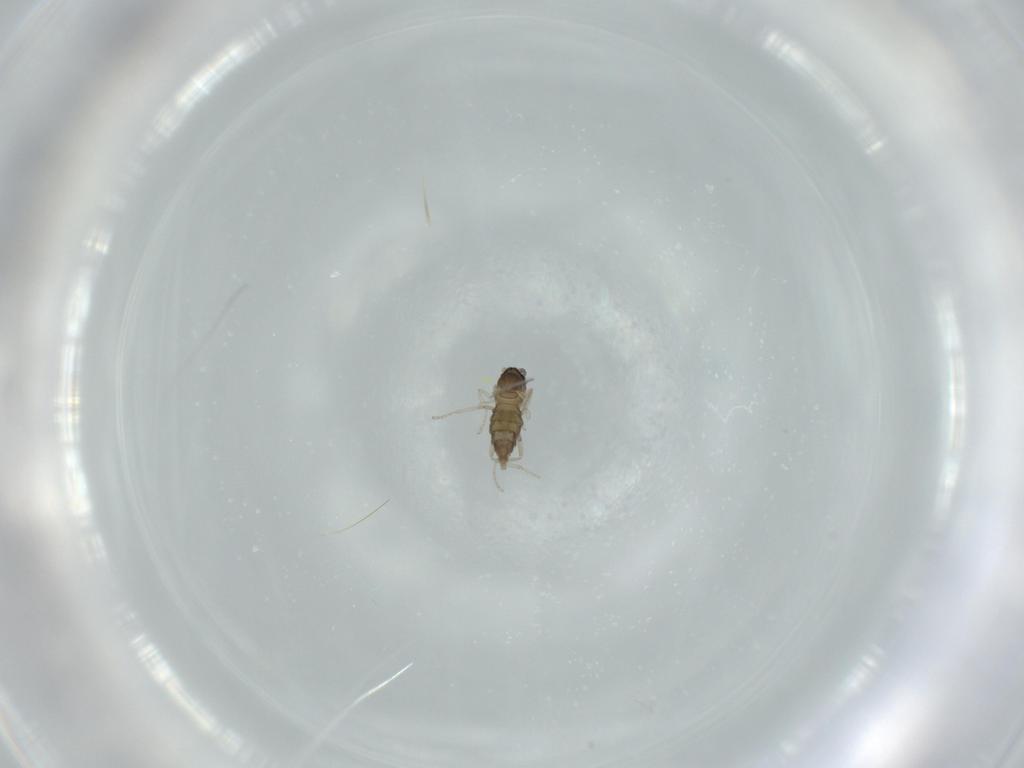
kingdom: Animalia
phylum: Arthropoda
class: Insecta
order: Diptera
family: Cecidomyiidae
